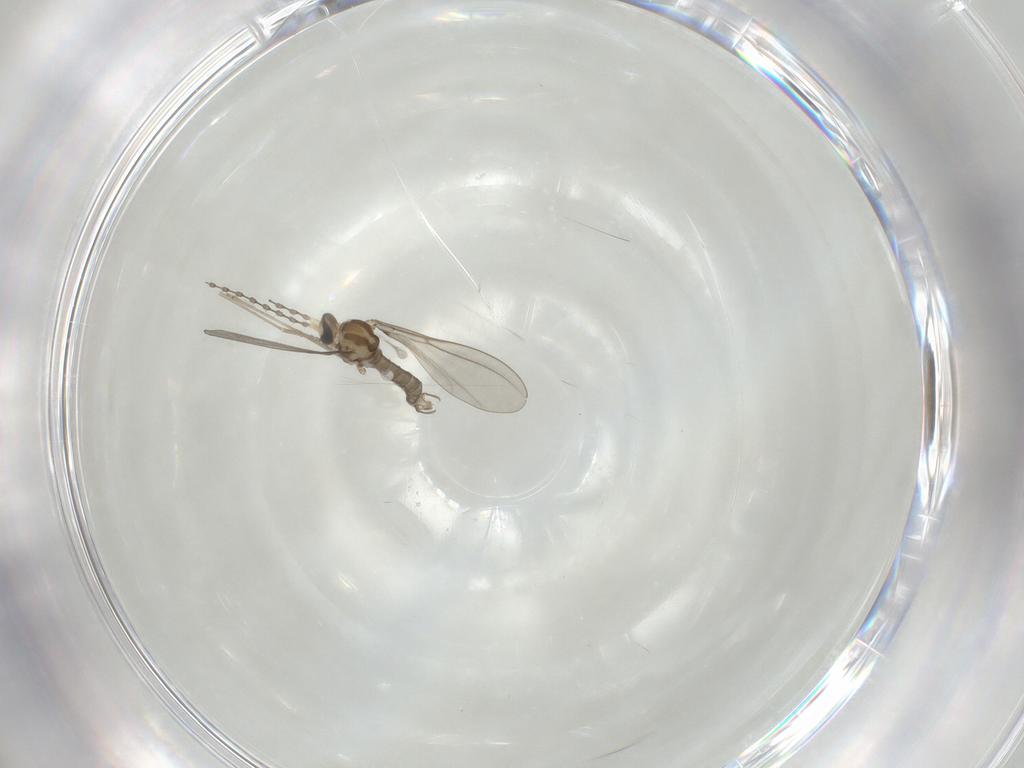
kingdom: Animalia
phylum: Arthropoda
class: Insecta
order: Diptera
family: Cecidomyiidae
